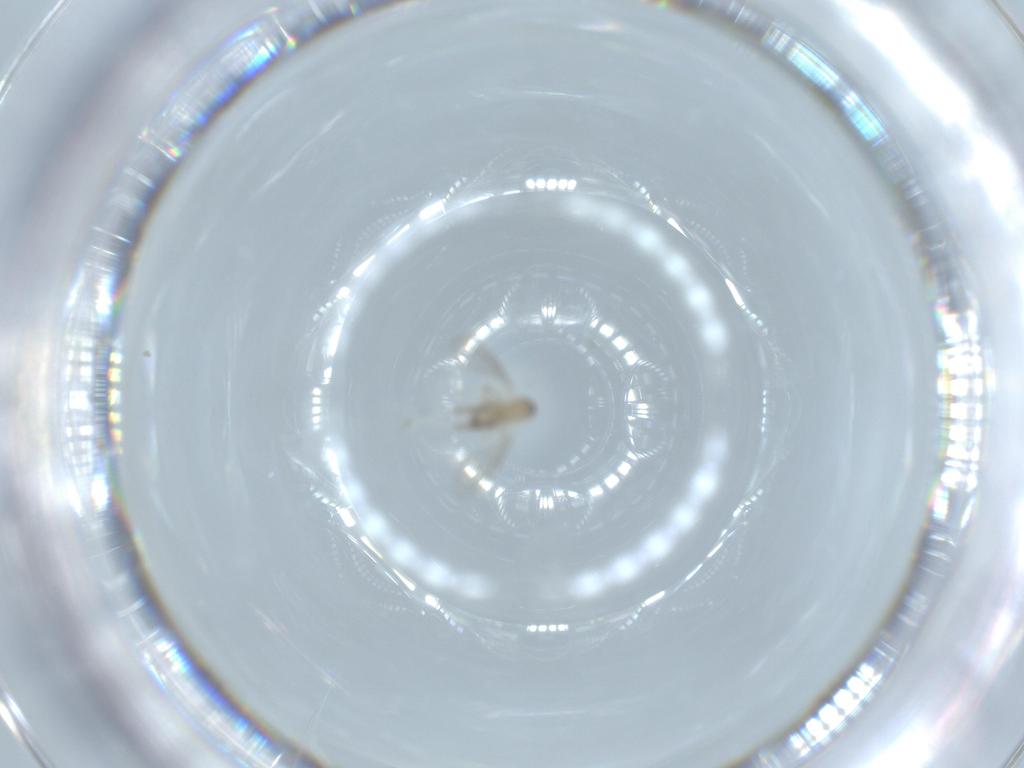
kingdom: Animalia
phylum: Arthropoda
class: Insecta
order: Diptera
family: Cecidomyiidae
